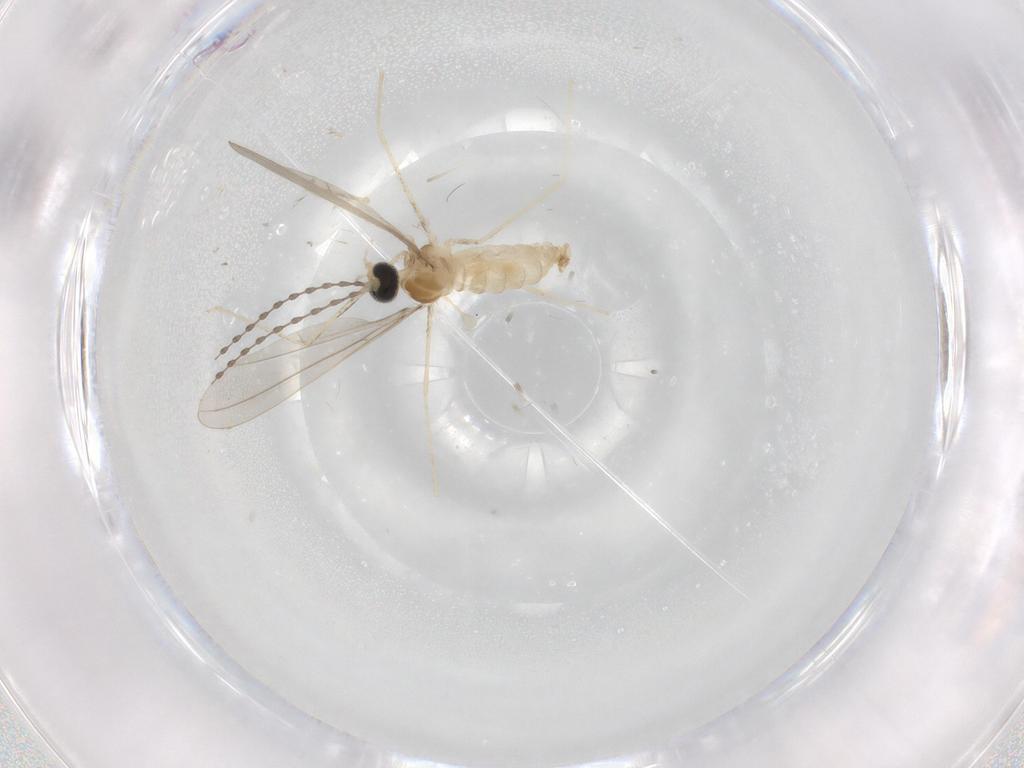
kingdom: Animalia
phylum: Arthropoda
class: Insecta
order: Diptera
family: Cecidomyiidae
